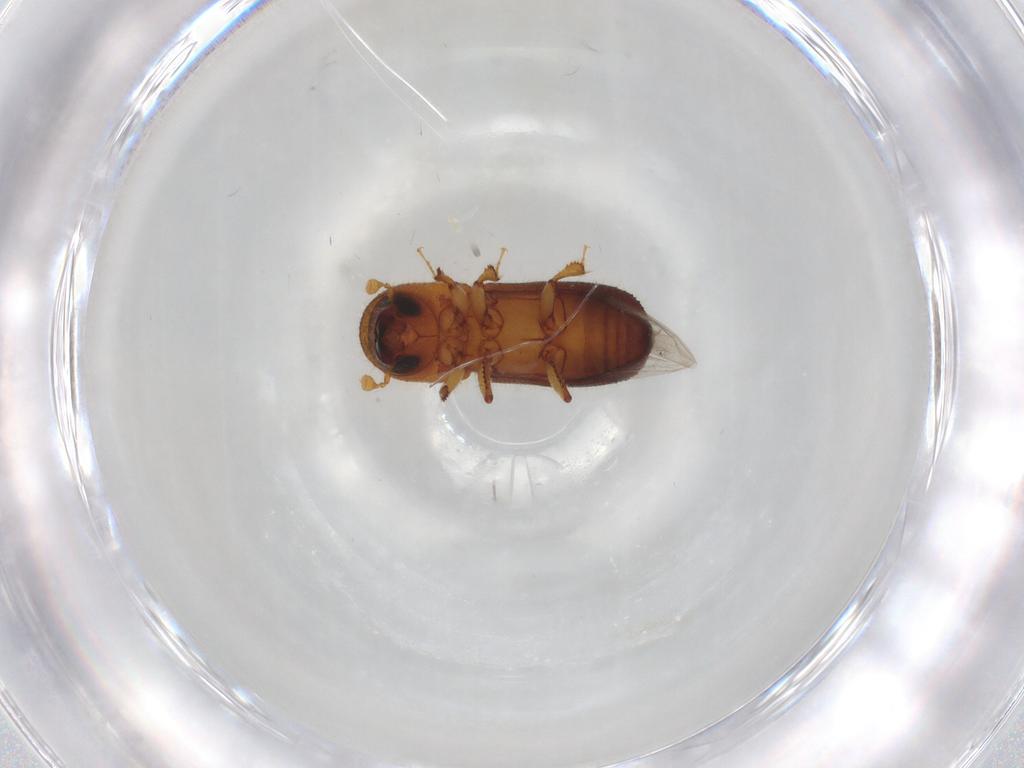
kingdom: Animalia
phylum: Arthropoda
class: Insecta
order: Coleoptera
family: Curculionidae
